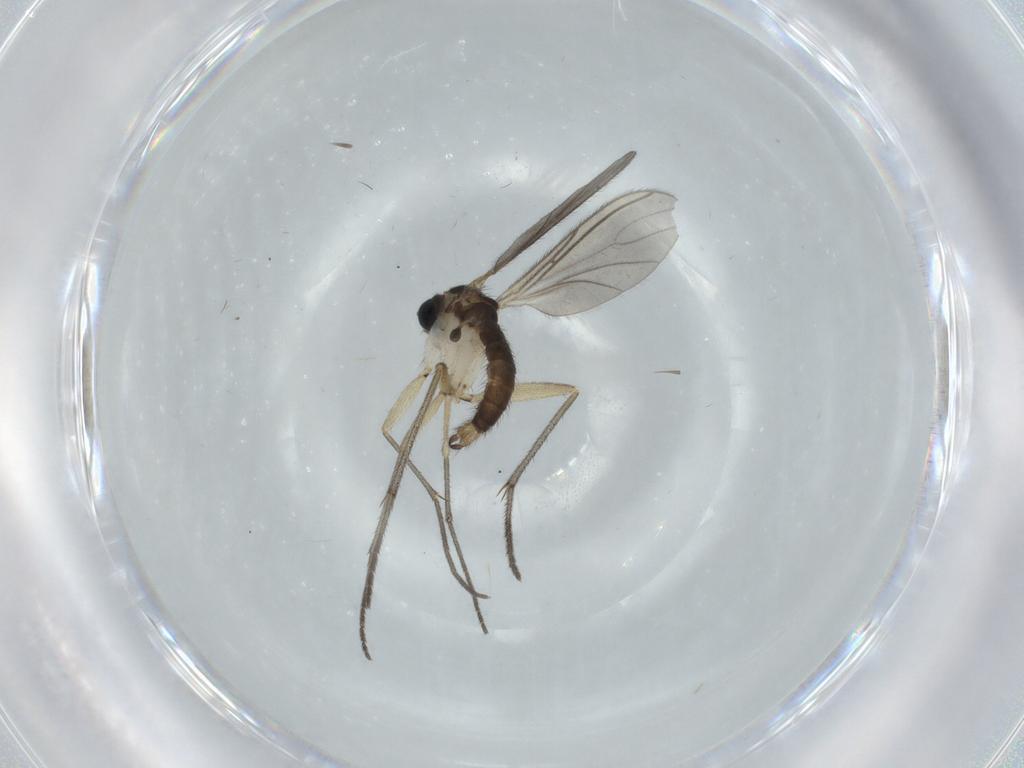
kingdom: Animalia
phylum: Arthropoda
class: Insecta
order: Diptera
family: Sciaridae
